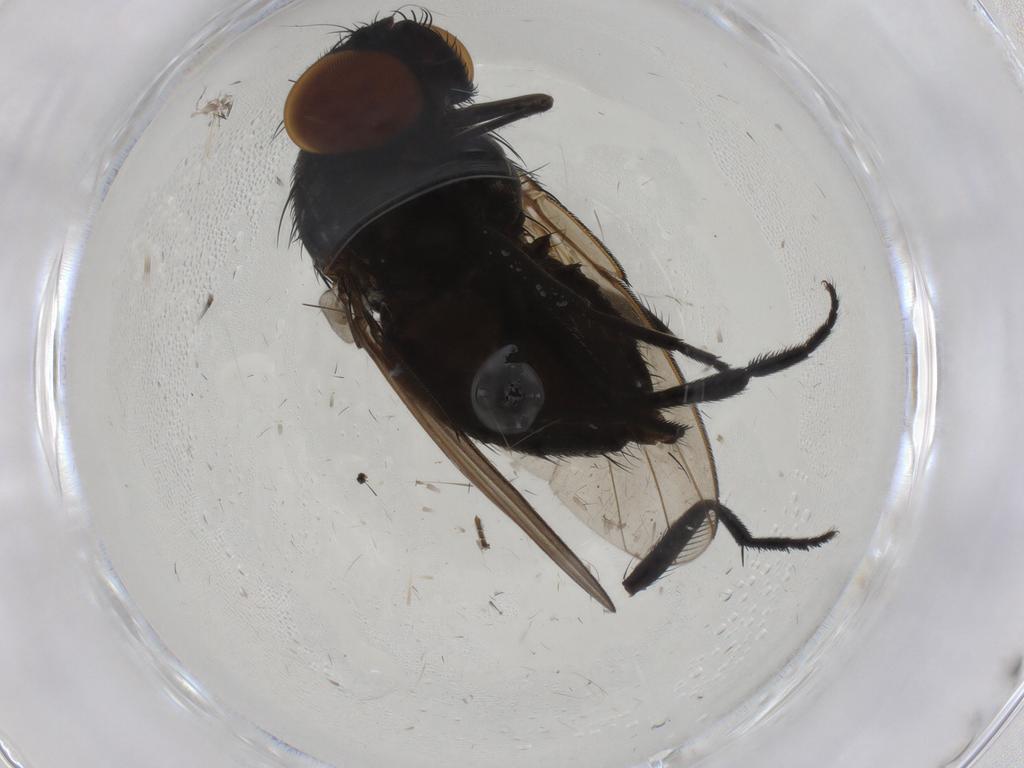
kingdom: Animalia
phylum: Arthropoda
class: Insecta
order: Diptera
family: Milichiidae
